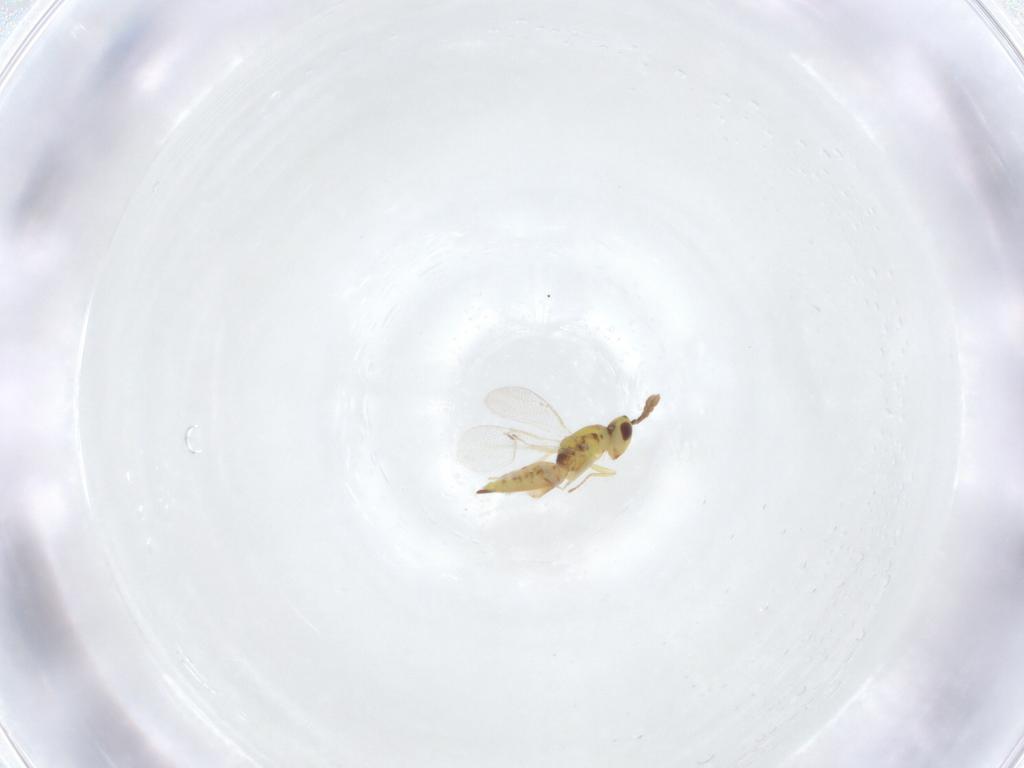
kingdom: Animalia
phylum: Arthropoda
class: Insecta
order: Hymenoptera
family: Eulophidae
